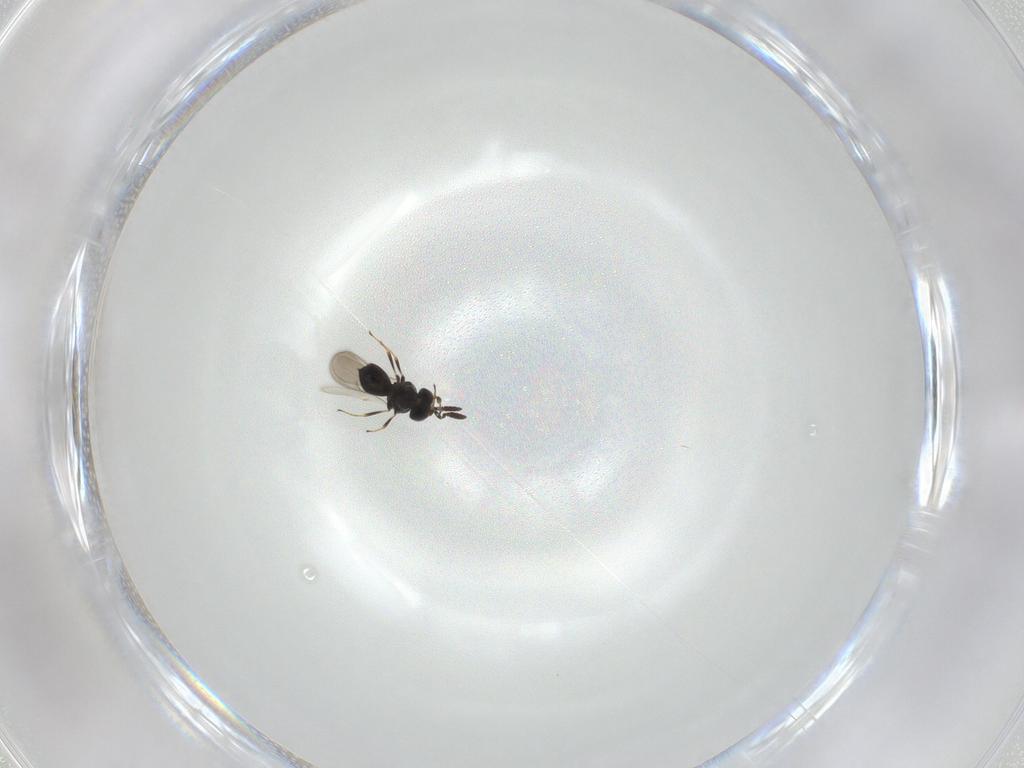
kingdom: Animalia
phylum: Arthropoda
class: Insecta
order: Hymenoptera
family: Scelionidae
